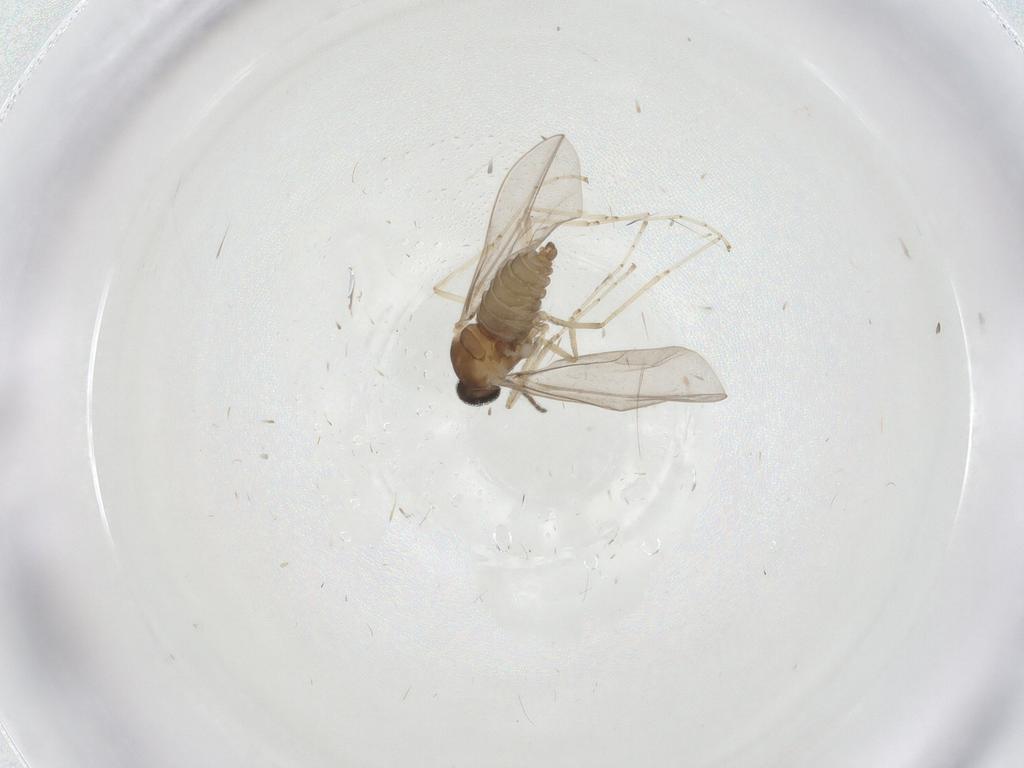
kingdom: Animalia
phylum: Arthropoda
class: Insecta
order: Diptera
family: Cecidomyiidae
